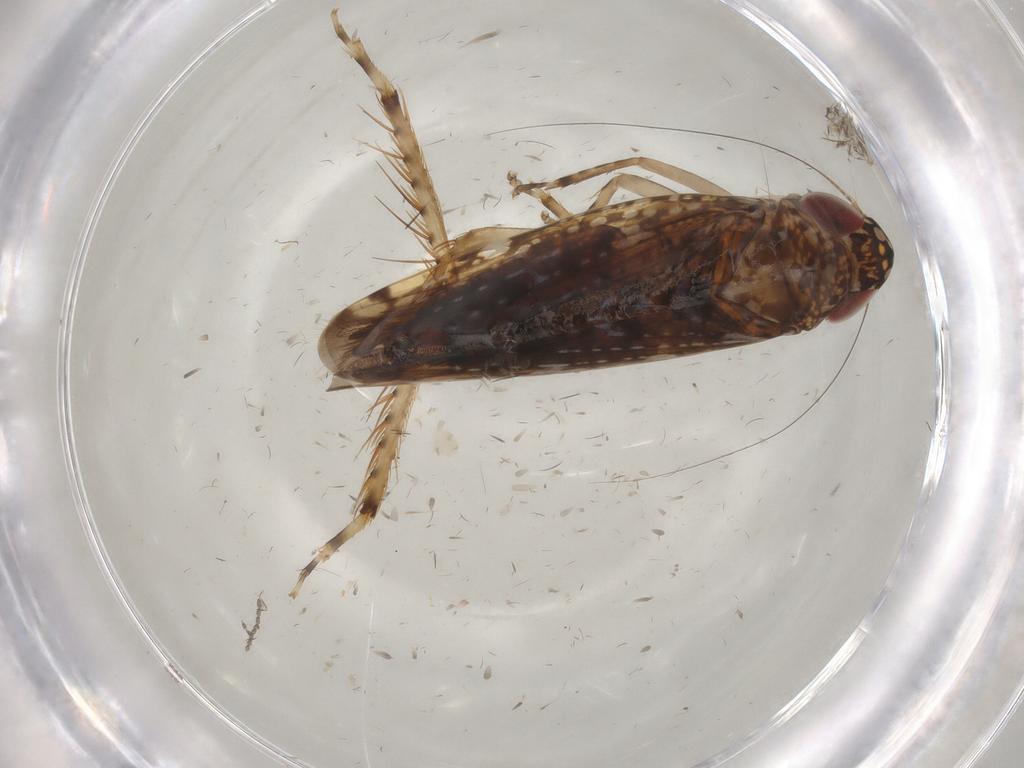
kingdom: Animalia
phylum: Arthropoda
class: Insecta
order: Hemiptera
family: Cicadellidae
